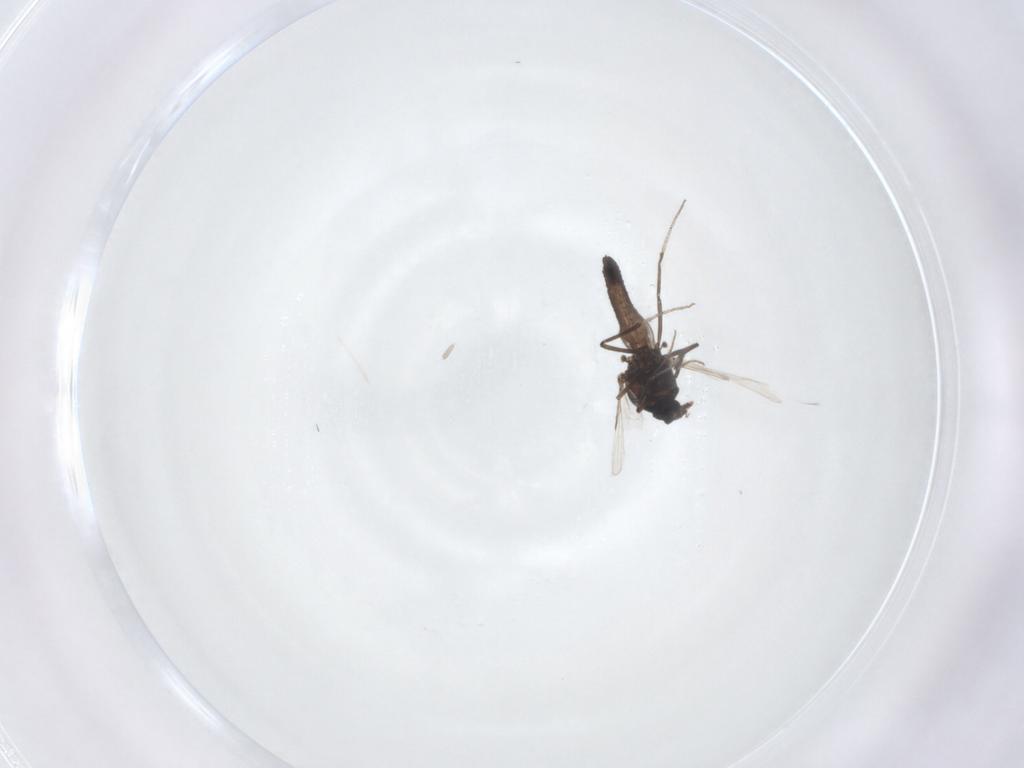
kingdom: Animalia
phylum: Arthropoda
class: Insecta
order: Diptera
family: Ceratopogonidae
